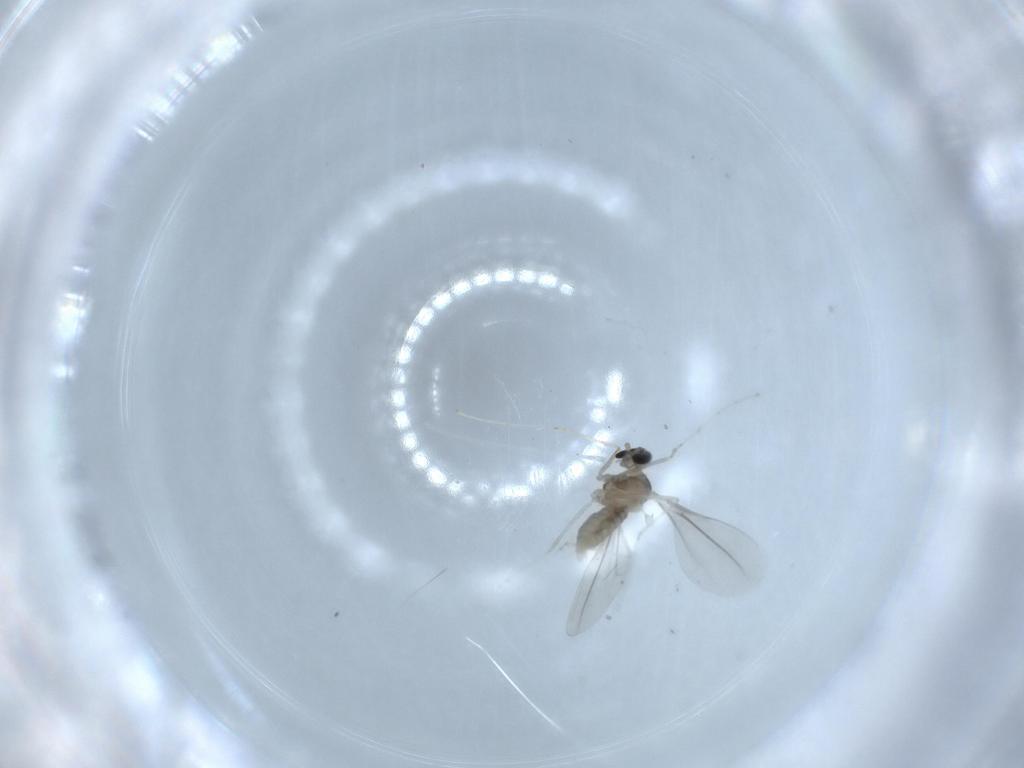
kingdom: Animalia
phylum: Arthropoda
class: Insecta
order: Diptera
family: Cecidomyiidae
